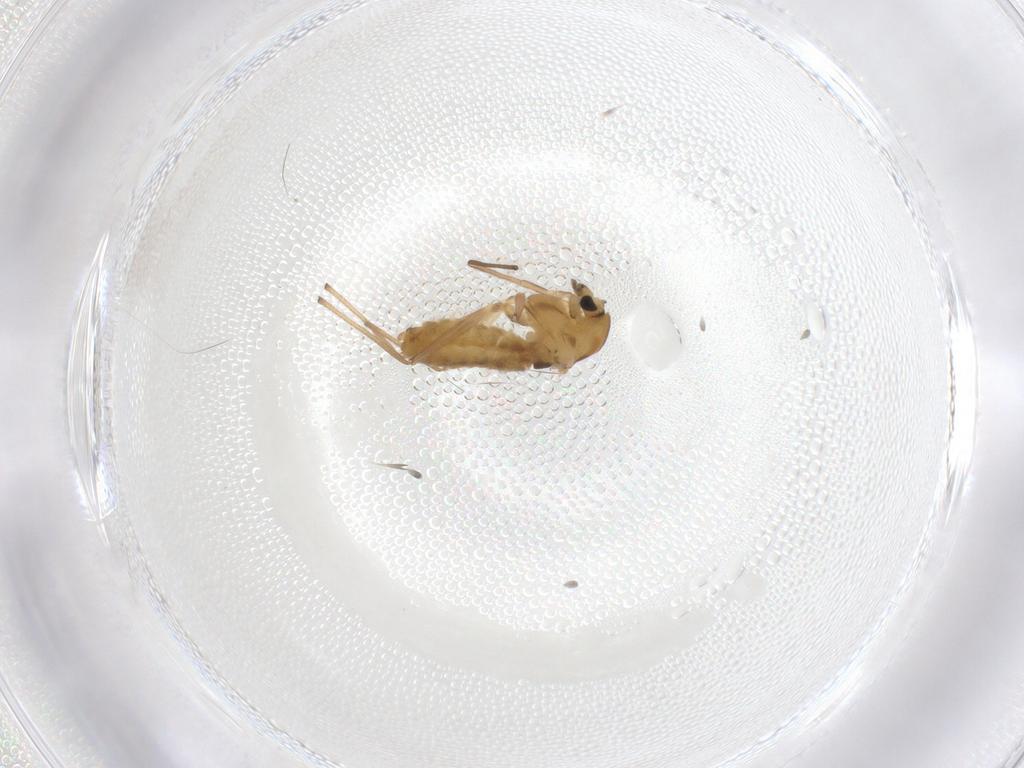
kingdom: Animalia
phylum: Arthropoda
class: Insecta
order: Diptera
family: Chironomidae
